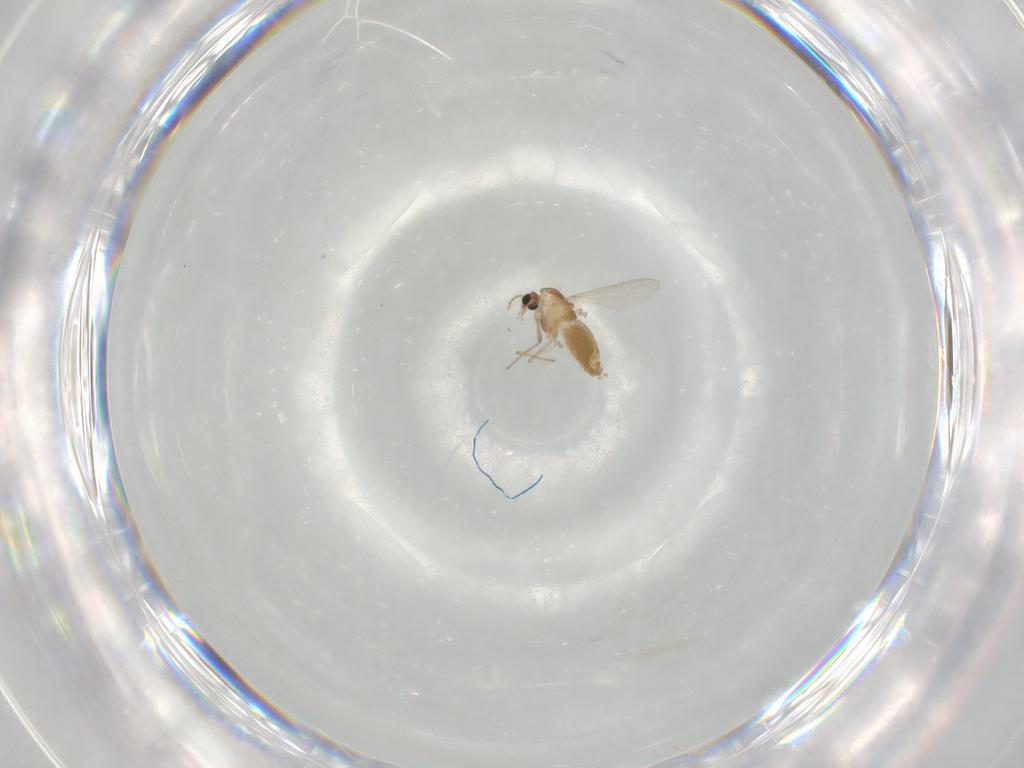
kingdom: Animalia
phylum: Arthropoda
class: Insecta
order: Diptera
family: Chironomidae
